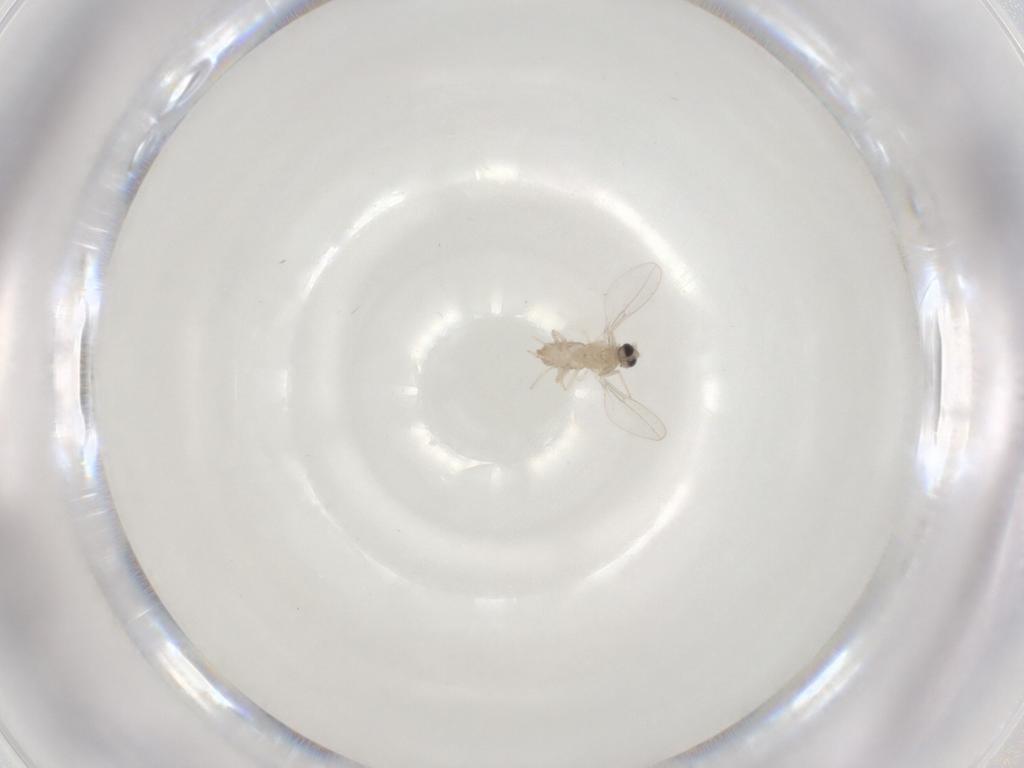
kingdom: Animalia
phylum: Arthropoda
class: Insecta
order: Diptera
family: Cecidomyiidae
